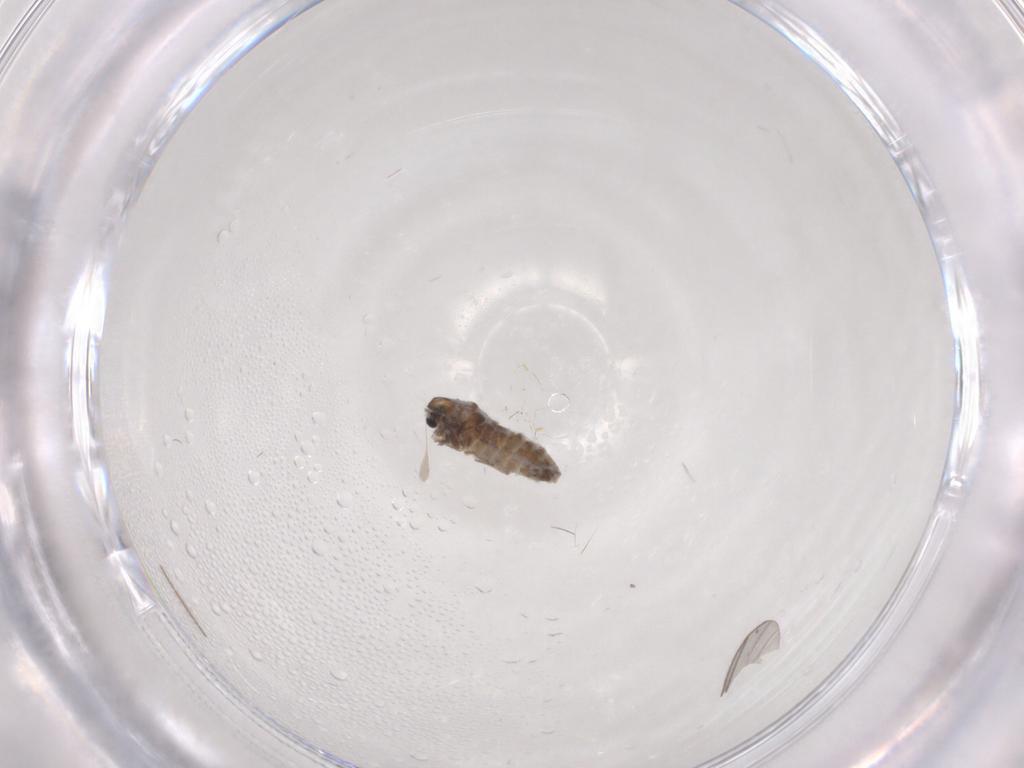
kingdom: Animalia
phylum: Arthropoda
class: Insecta
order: Diptera
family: Chironomidae
